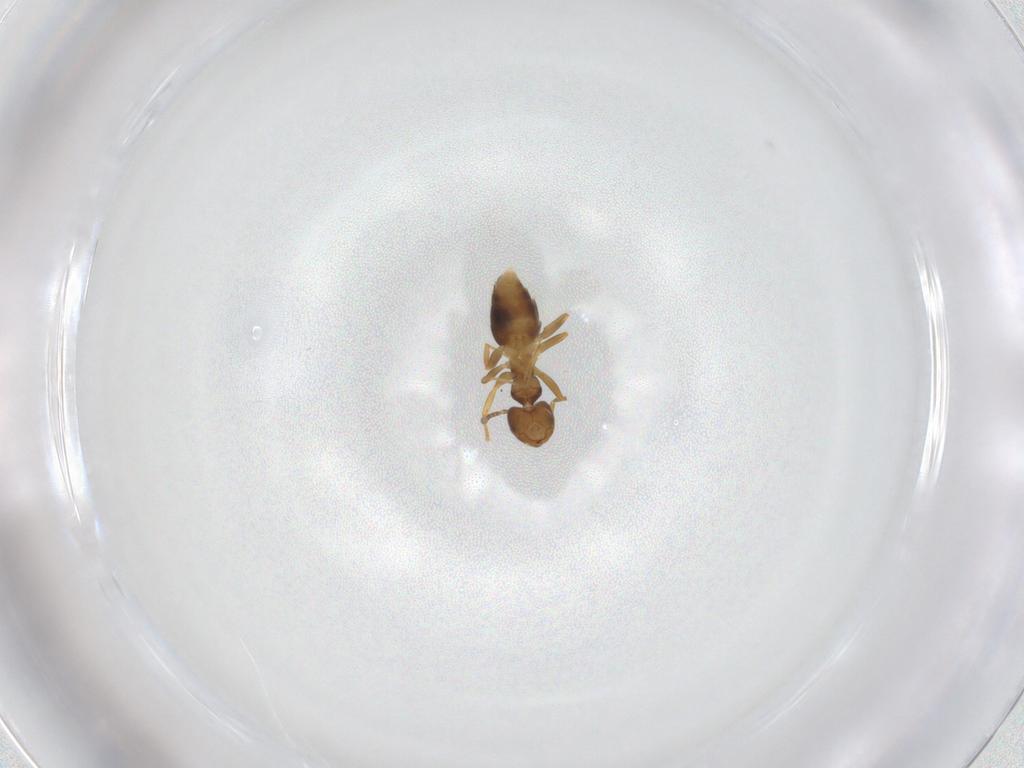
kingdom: Animalia
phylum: Arthropoda
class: Insecta
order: Hymenoptera
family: Formicidae
